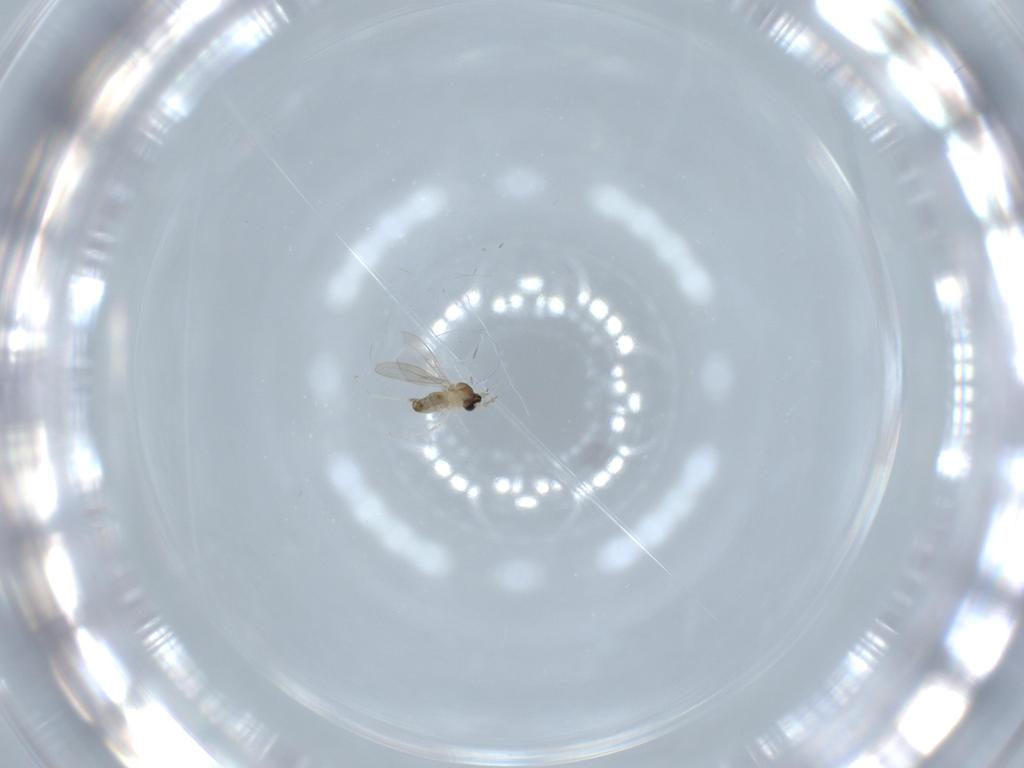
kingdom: Animalia
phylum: Arthropoda
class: Insecta
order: Diptera
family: Cecidomyiidae
